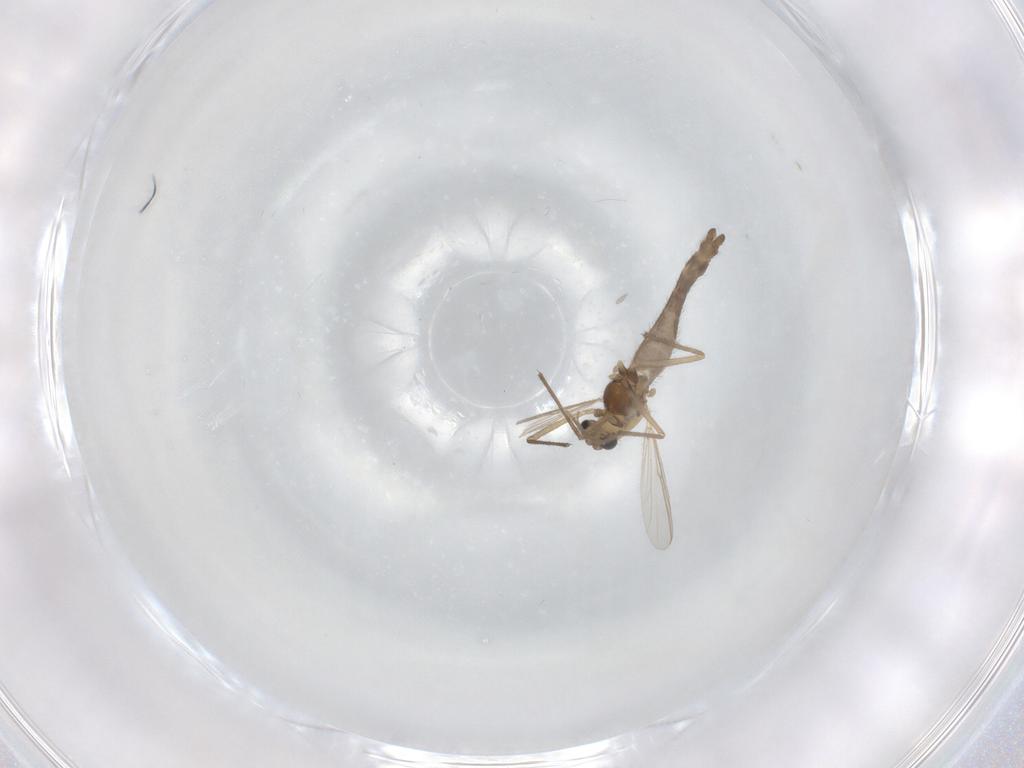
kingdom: Animalia
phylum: Arthropoda
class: Insecta
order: Diptera
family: Chironomidae
